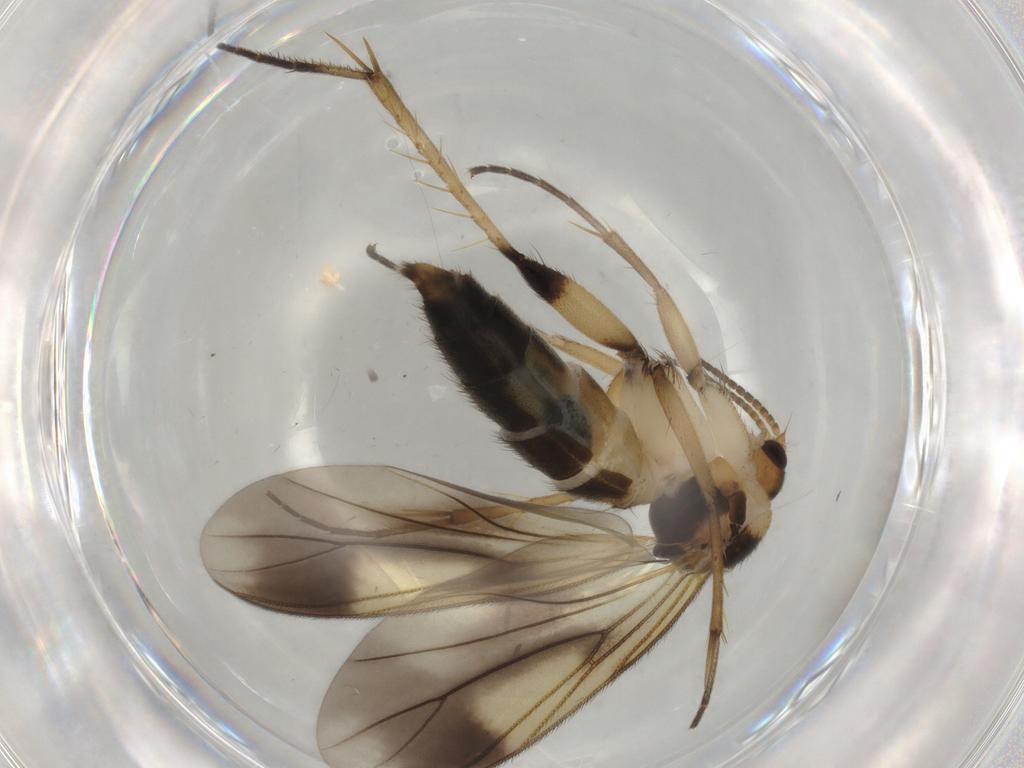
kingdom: Animalia
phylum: Arthropoda
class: Insecta
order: Diptera
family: Mycetophilidae
